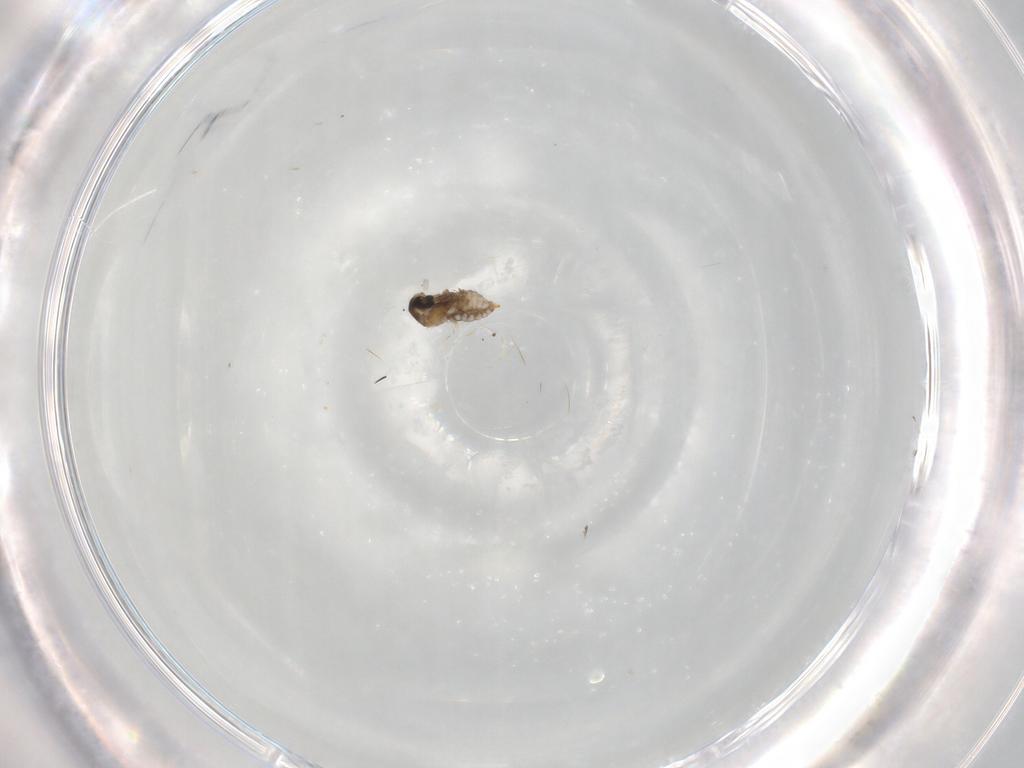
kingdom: Animalia
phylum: Arthropoda
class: Insecta
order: Diptera
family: Cecidomyiidae
